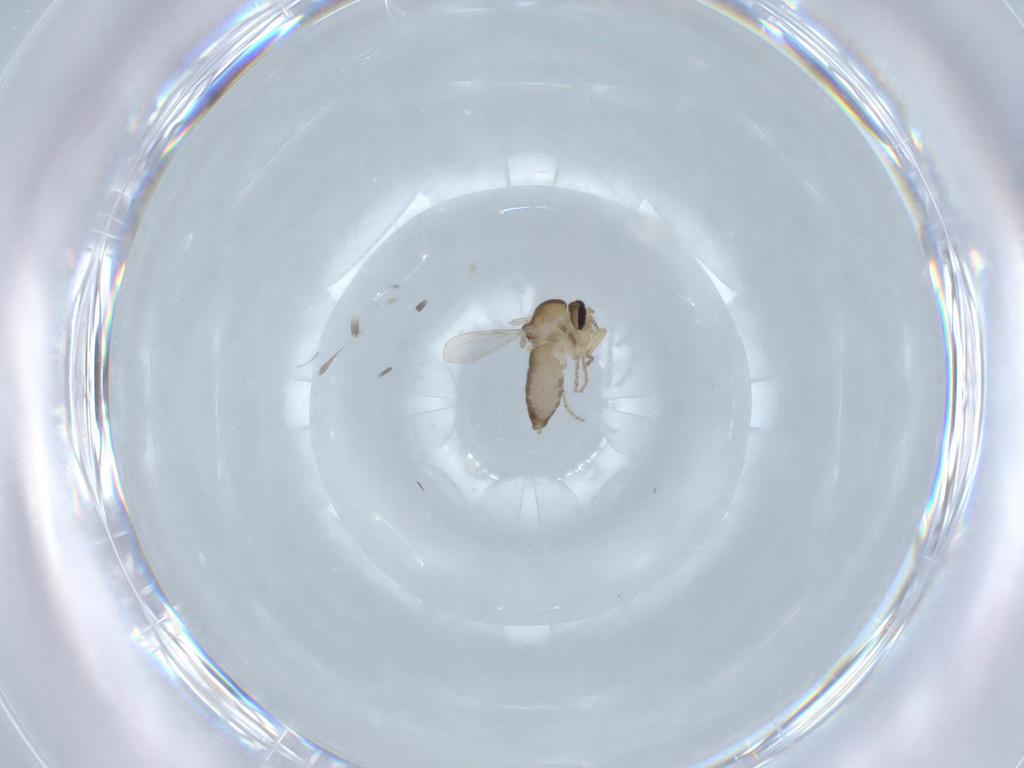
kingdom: Animalia
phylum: Arthropoda
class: Insecta
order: Diptera
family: Ceratopogonidae
